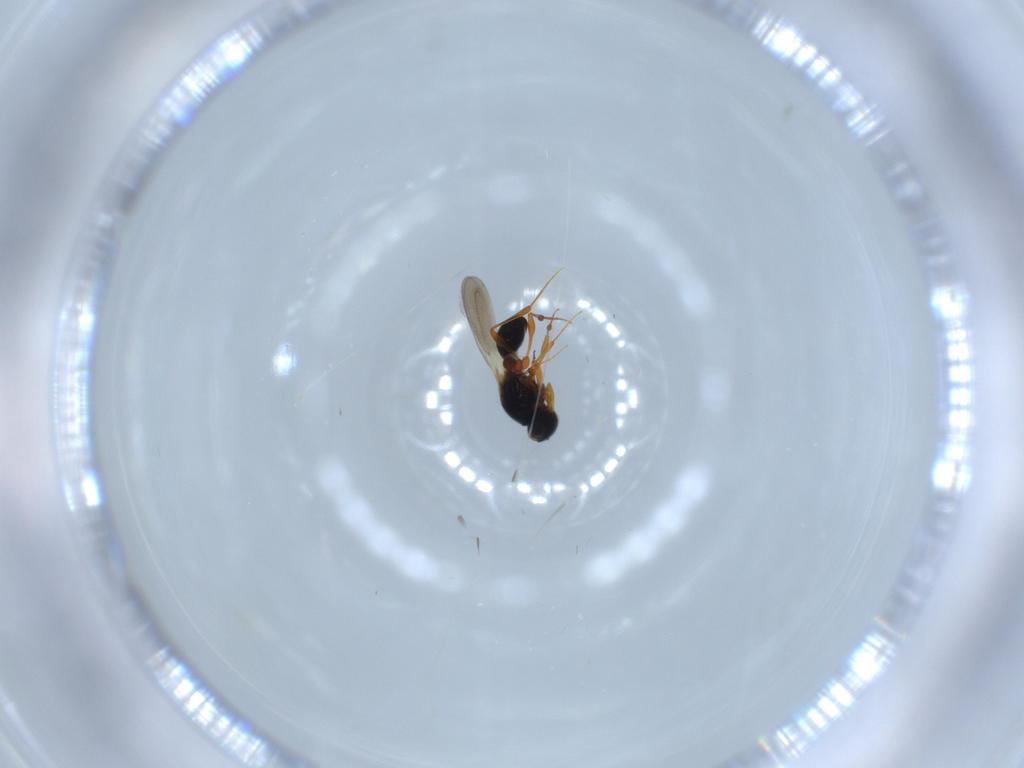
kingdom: Animalia
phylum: Arthropoda
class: Insecta
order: Hymenoptera
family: Platygastridae
